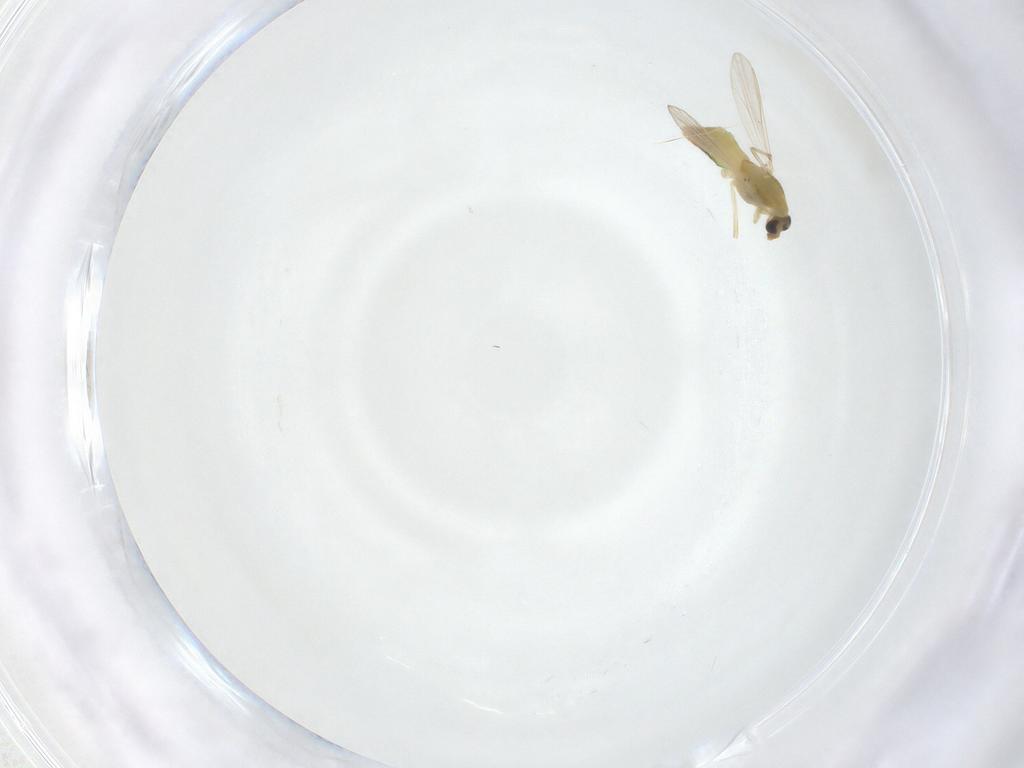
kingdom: Animalia
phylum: Arthropoda
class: Insecta
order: Diptera
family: Chironomidae
